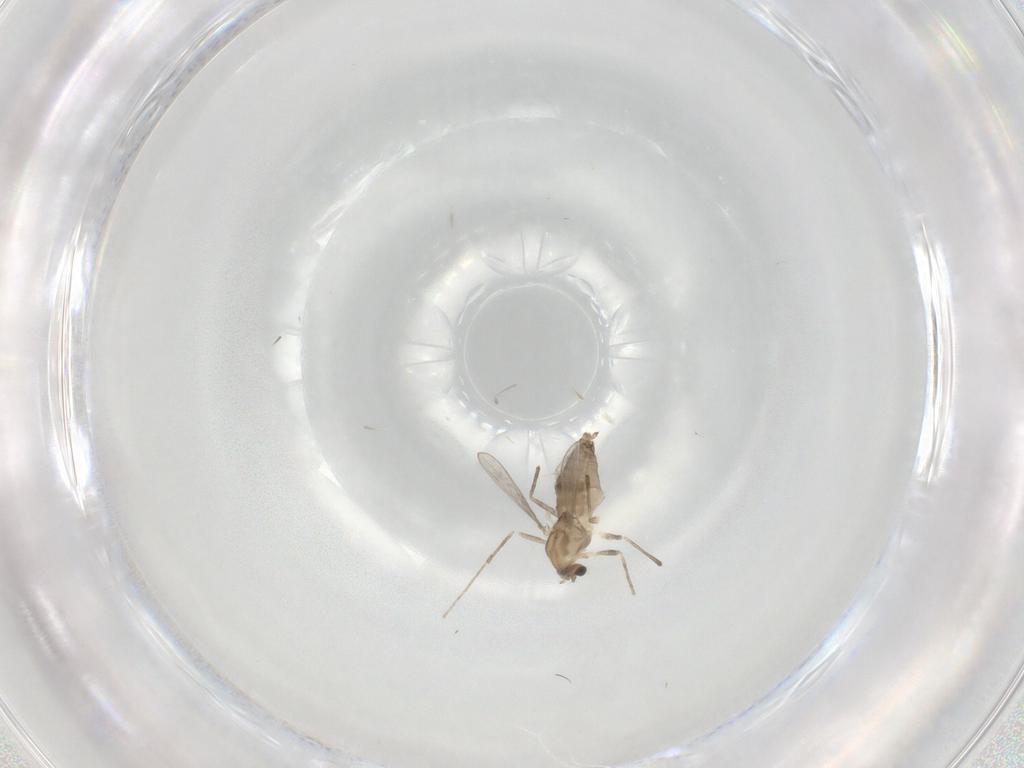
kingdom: Animalia
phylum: Arthropoda
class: Insecta
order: Diptera
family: Chironomidae
